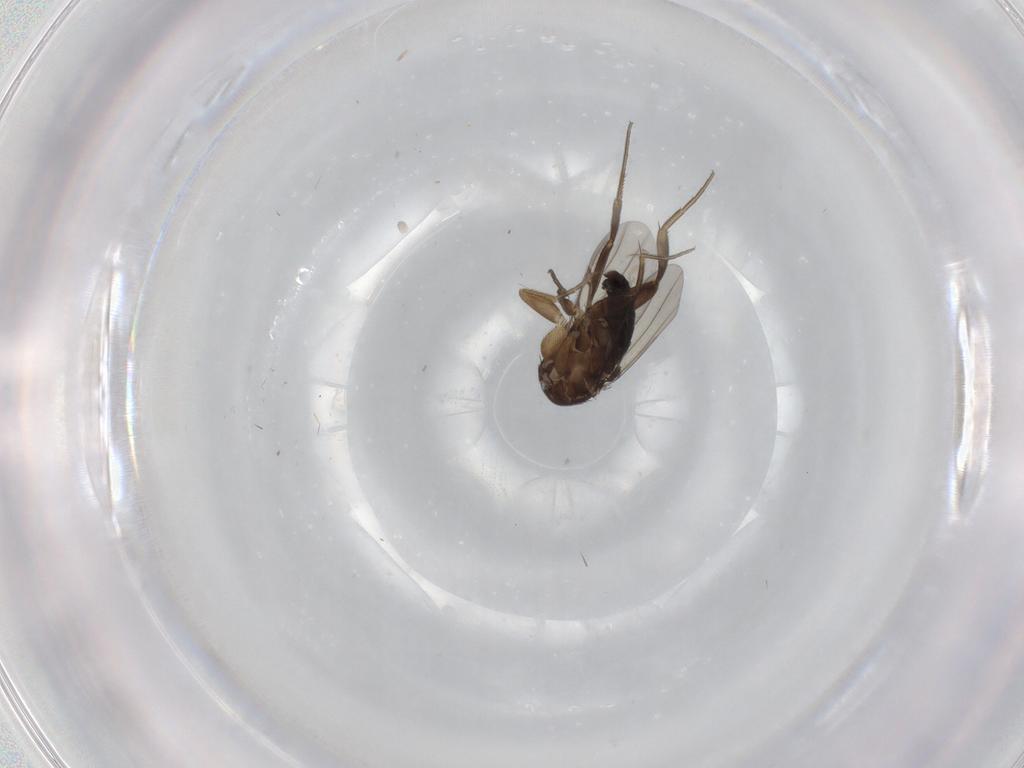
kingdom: Animalia
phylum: Arthropoda
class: Insecta
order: Diptera
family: Phoridae
